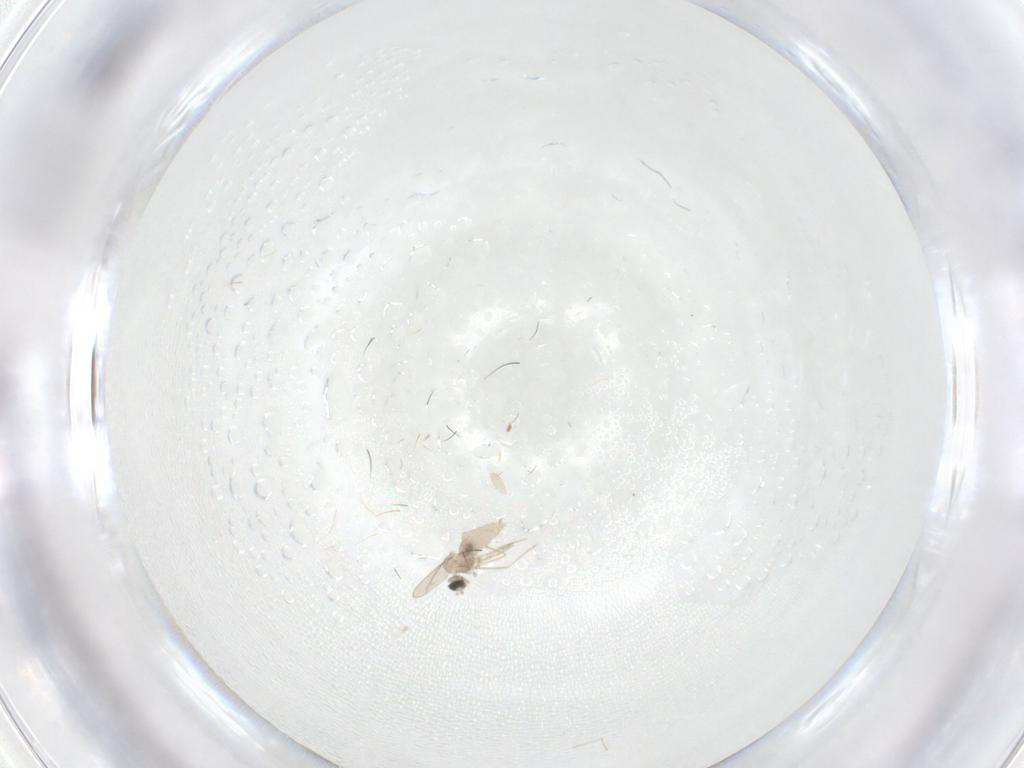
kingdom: Animalia
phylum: Arthropoda
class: Insecta
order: Diptera
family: Cecidomyiidae
